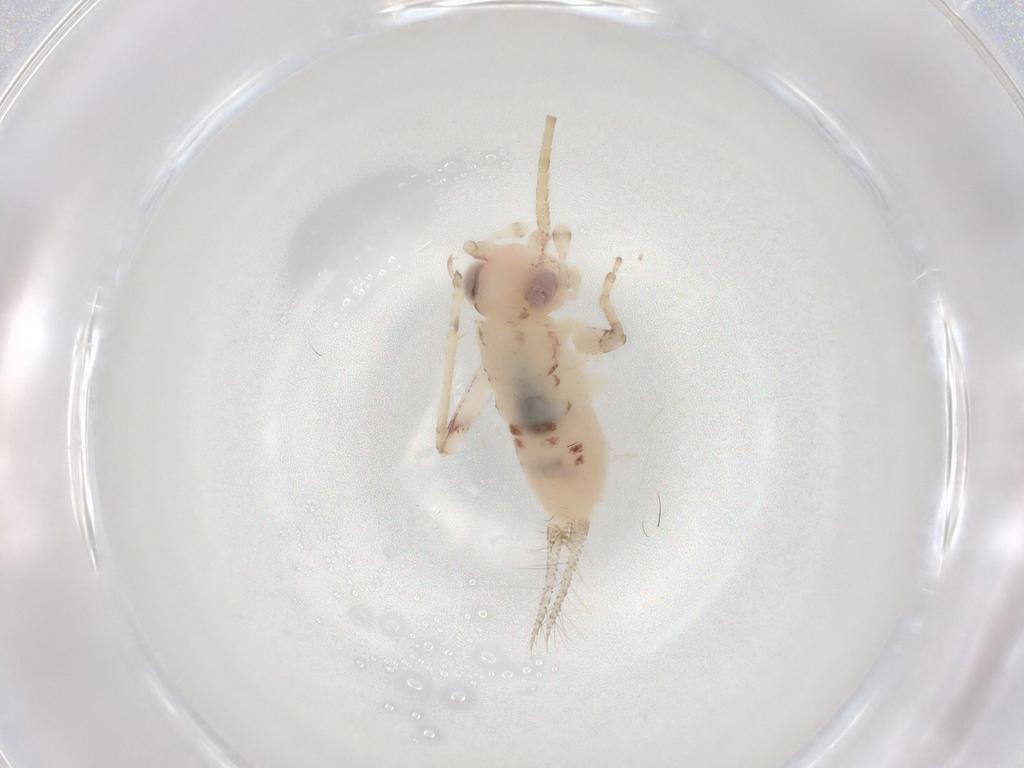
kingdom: Animalia
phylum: Arthropoda
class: Insecta
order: Orthoptera
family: Trigonidiidae
